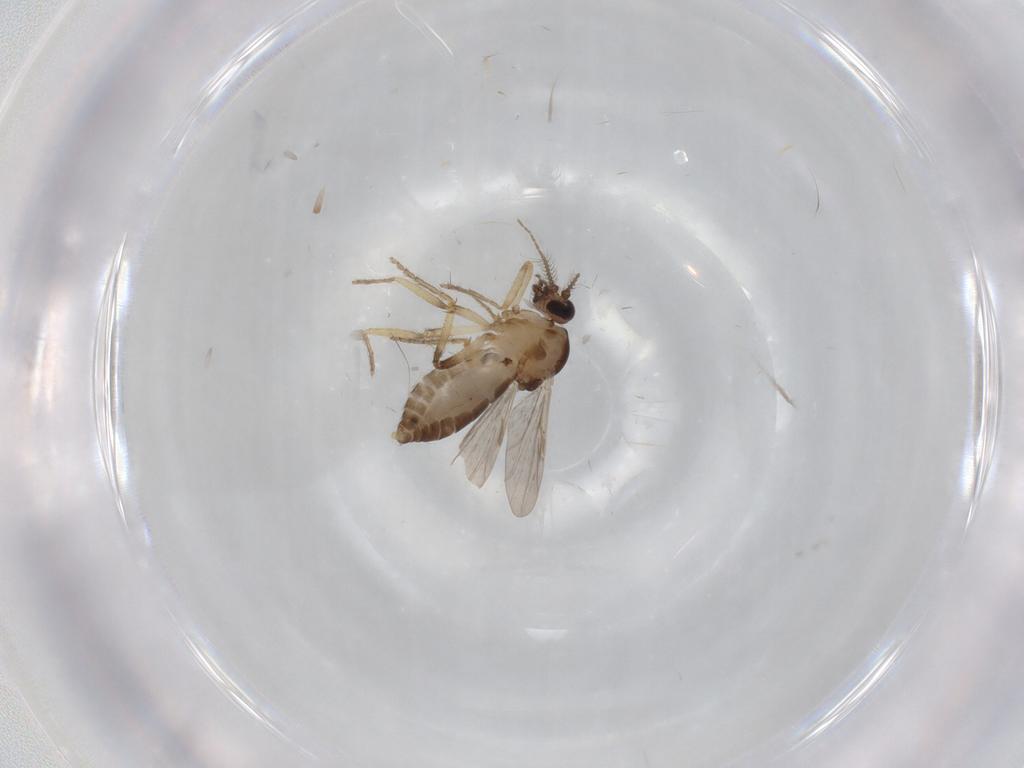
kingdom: Animalia
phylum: Arthropoda
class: Insecta
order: Diptera
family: Ceratopogonidae
